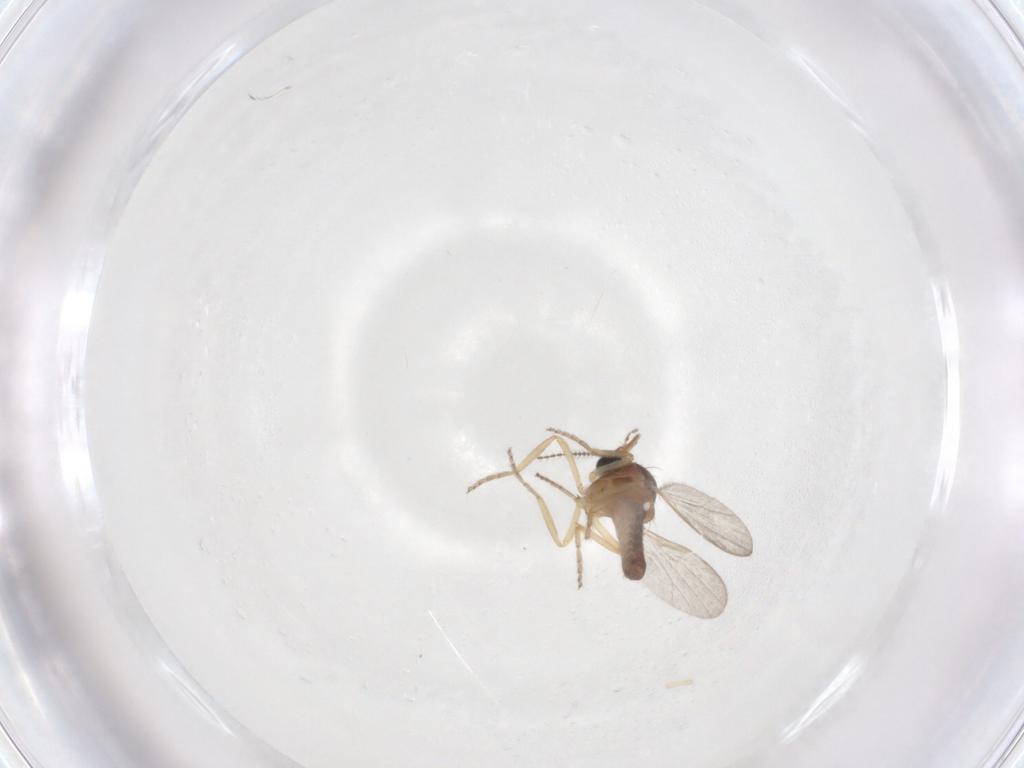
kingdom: Animalia
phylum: Arthropoda
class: Insecta
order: Diptera
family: Ceratopogonidae
